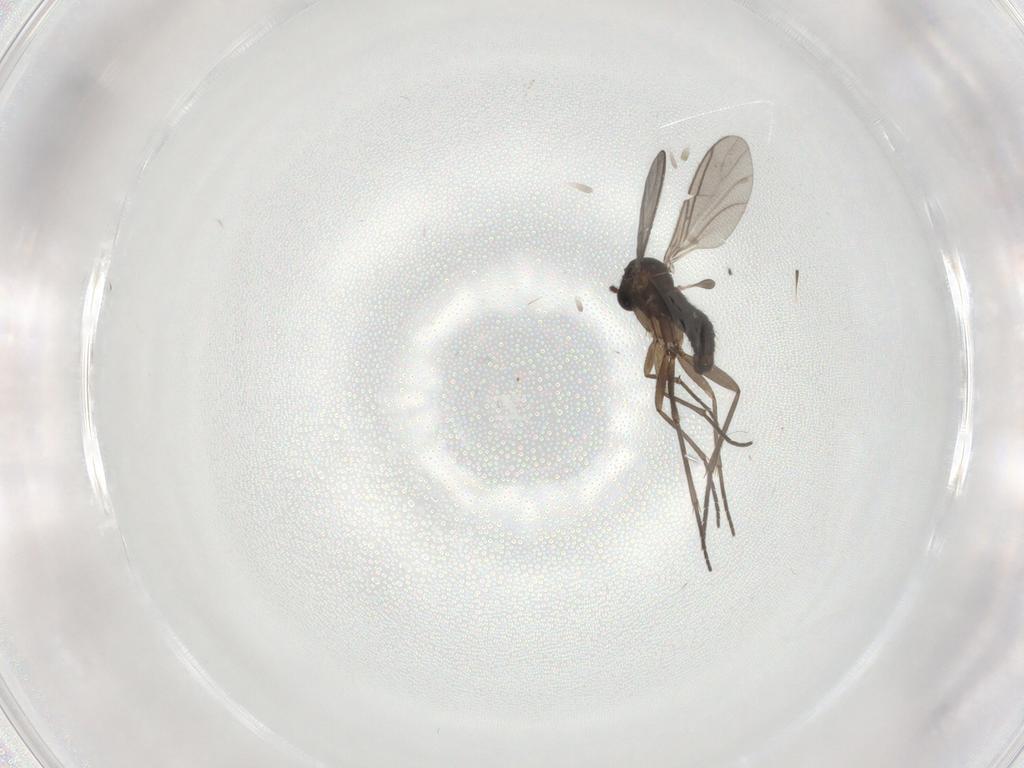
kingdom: Animalia
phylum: Arthropoda
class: Insecta
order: Diptera
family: Sciaridae
